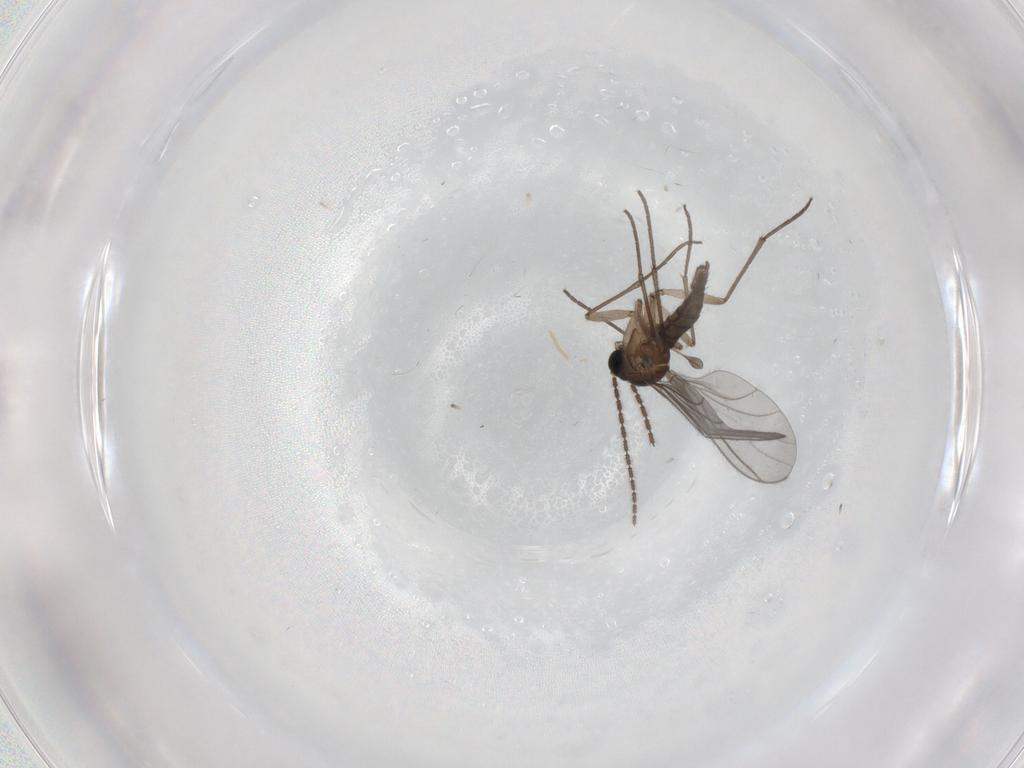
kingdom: Animalia
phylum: Arthropoda
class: Insecta
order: Diptera
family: Sciaridae
